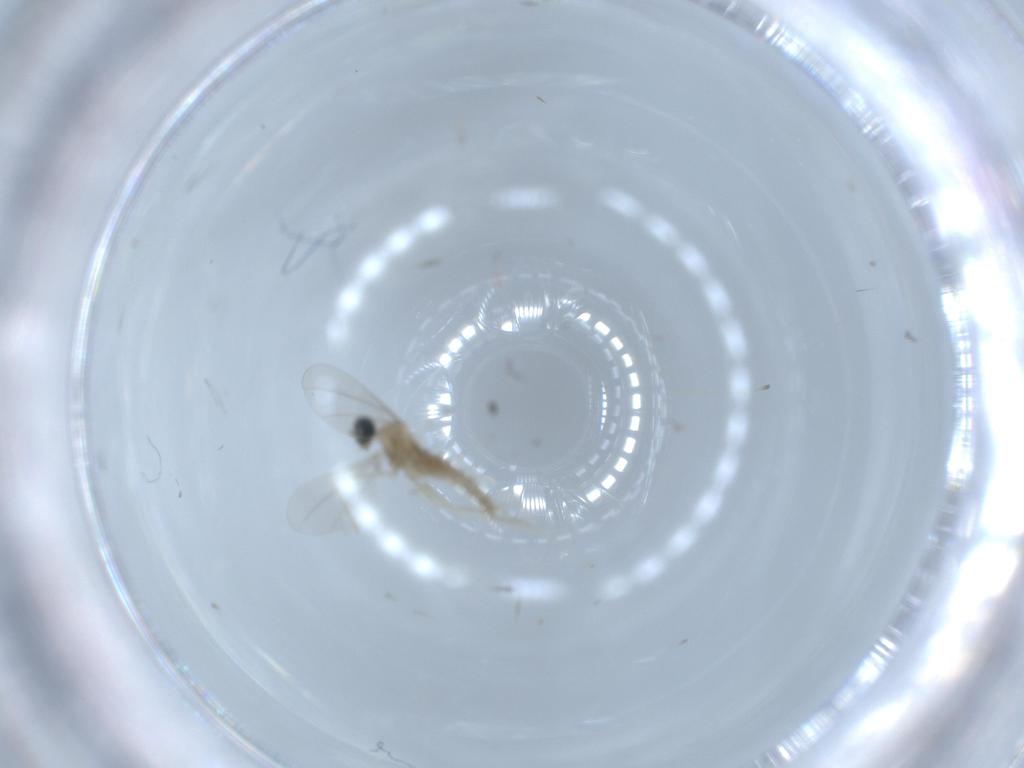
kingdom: Animalia
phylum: Arthropoda
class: Insecta
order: Diptera
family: Cecidomyiidae
